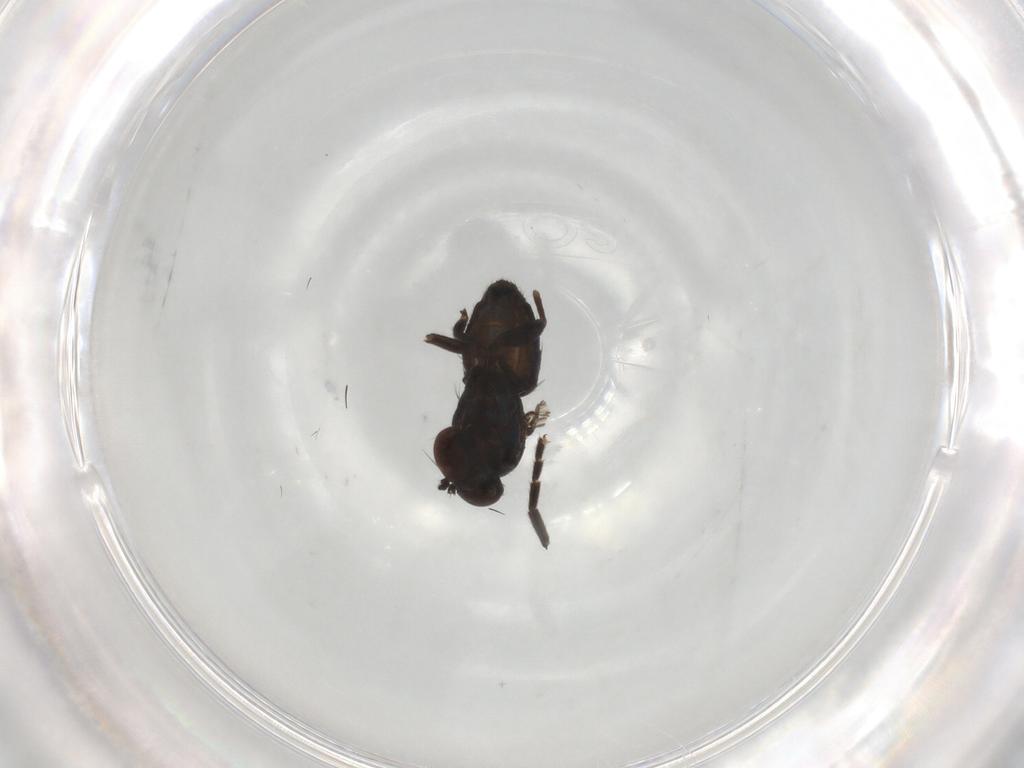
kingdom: Animalia
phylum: Arthropoda
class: Insecta
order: Diptera
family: Dolichopodidae
